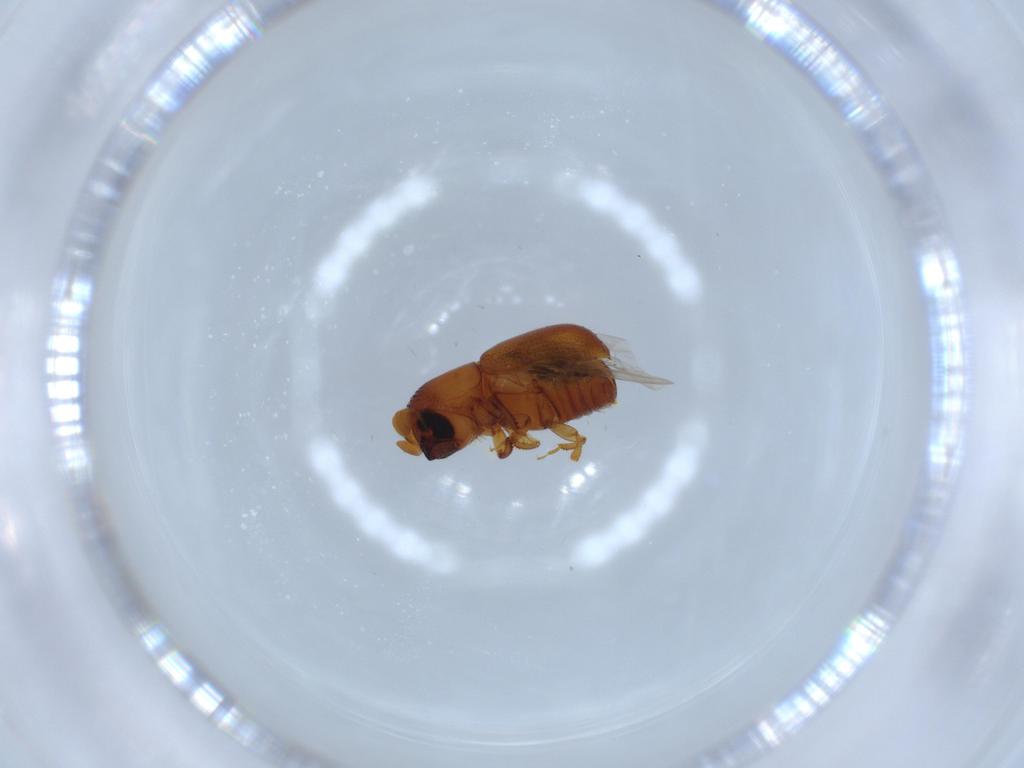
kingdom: Animalia
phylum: Arthropoda
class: Insecta
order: Coleoptera
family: Curculionidae
